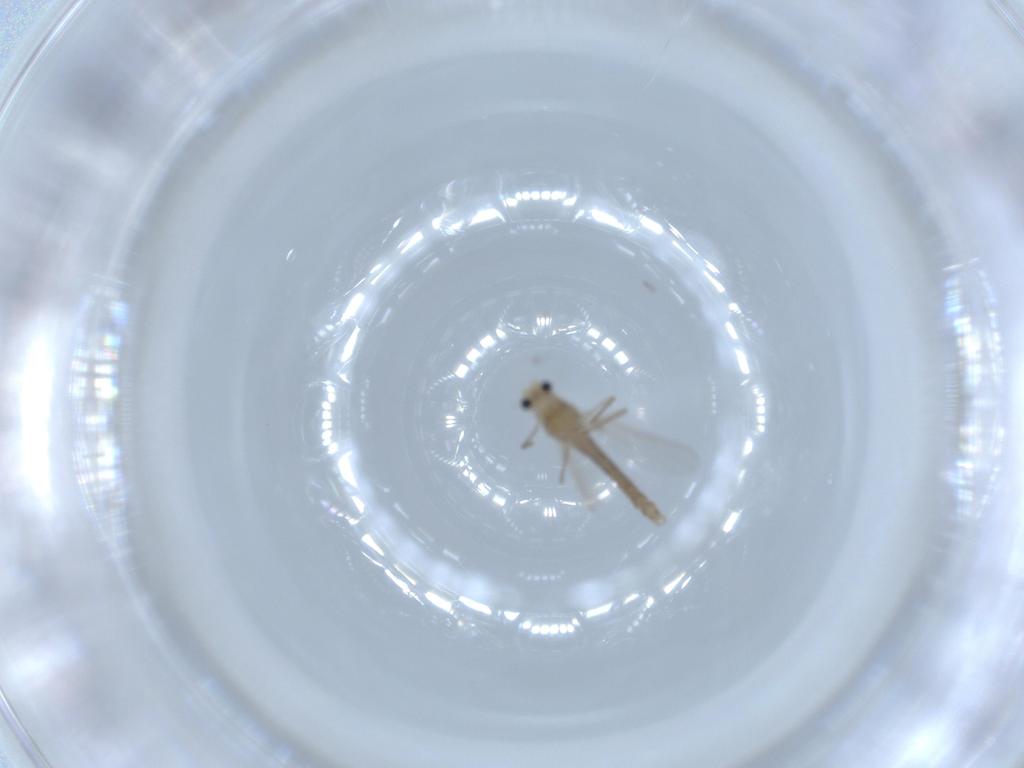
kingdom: Animalia
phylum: Arthropoda
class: Insecta
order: Diptera
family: Chironomidae
